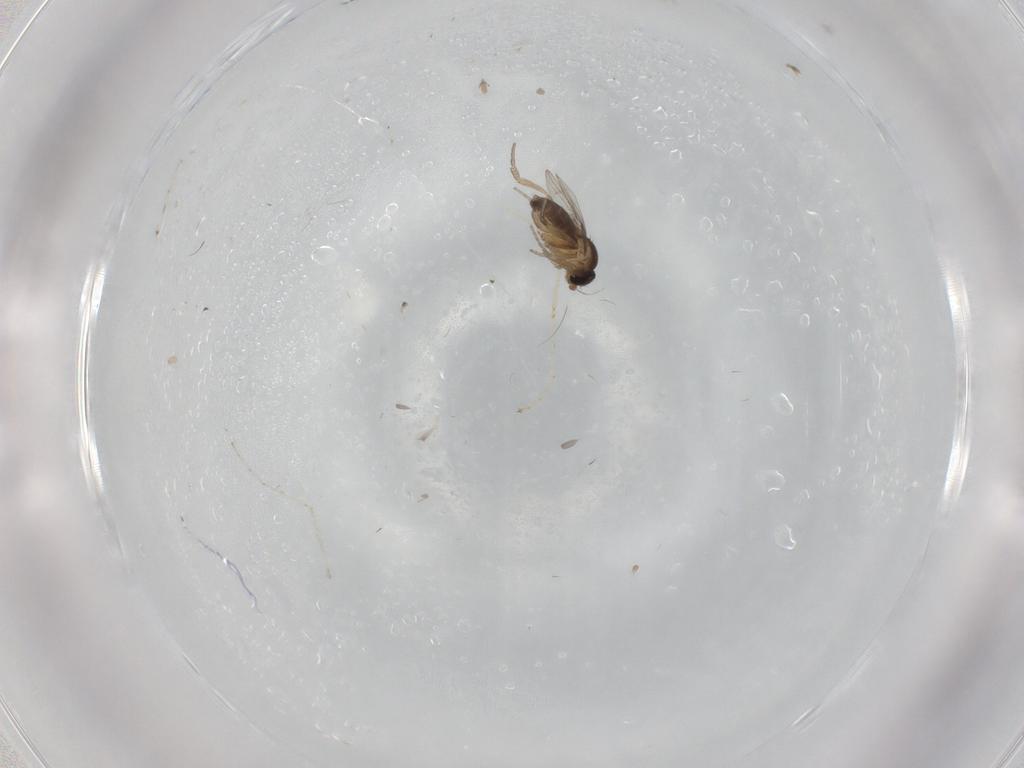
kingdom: Animalia
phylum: Arthropoda
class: Insecta
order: Diptera
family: Phoridae
